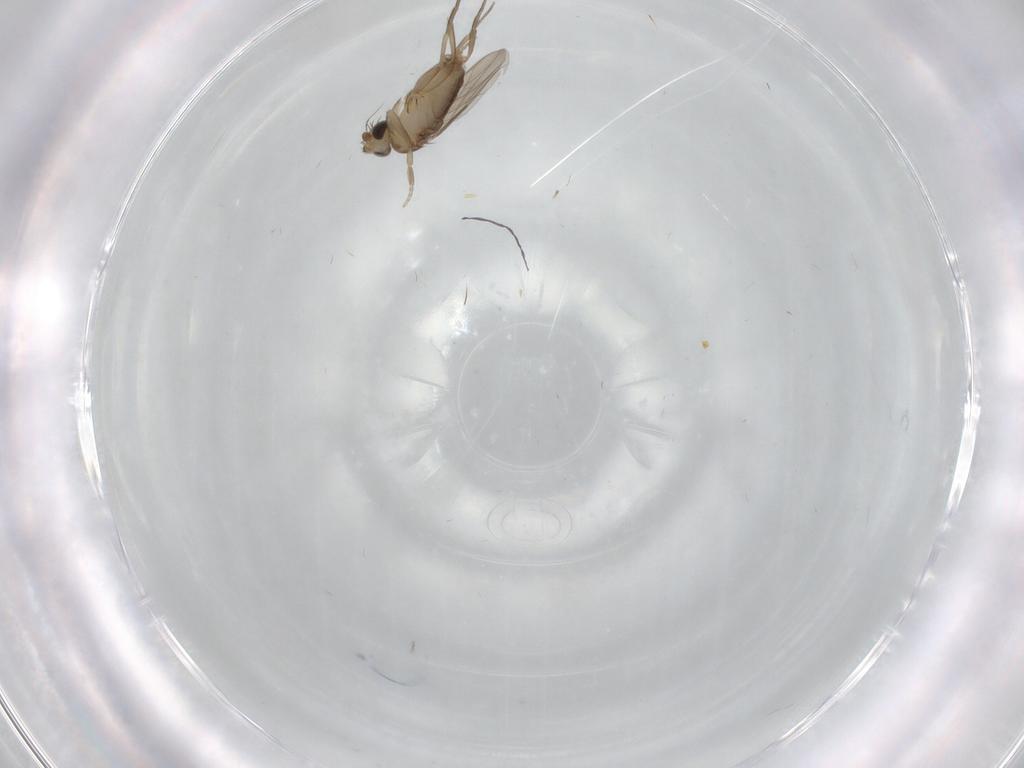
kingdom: Animalia
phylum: Arthropoda
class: Insecta
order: Diptera
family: Phoridae
